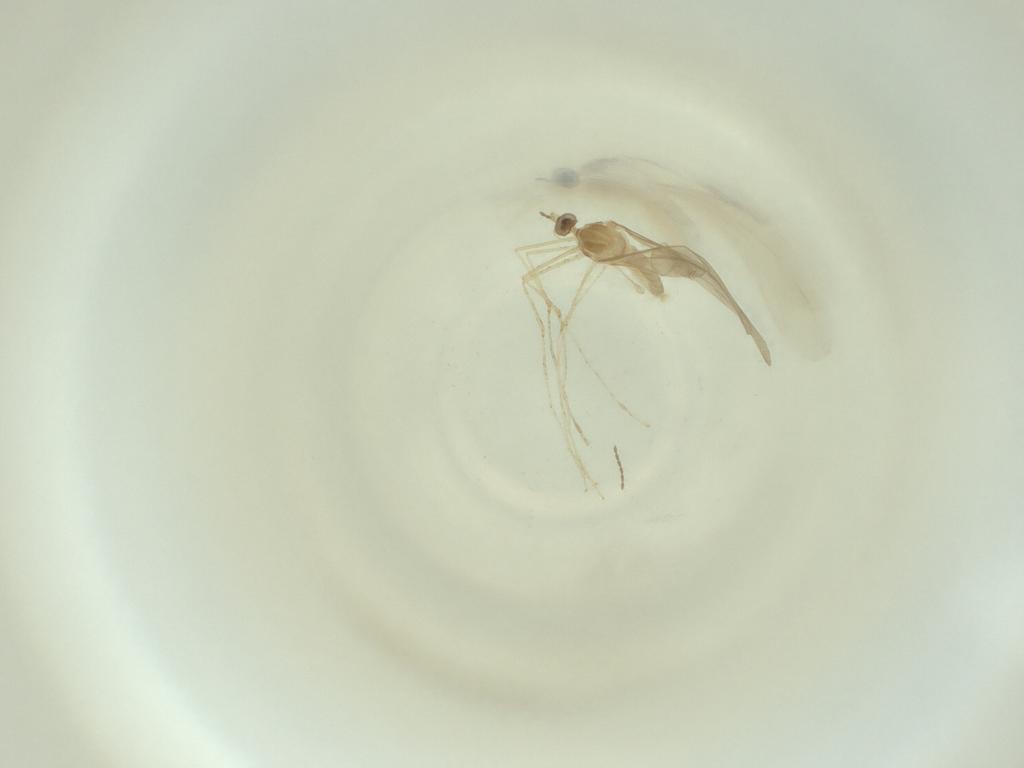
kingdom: Animalia
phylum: Arthropoda
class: Insecta
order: Diptera
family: Cecidomyiidae
